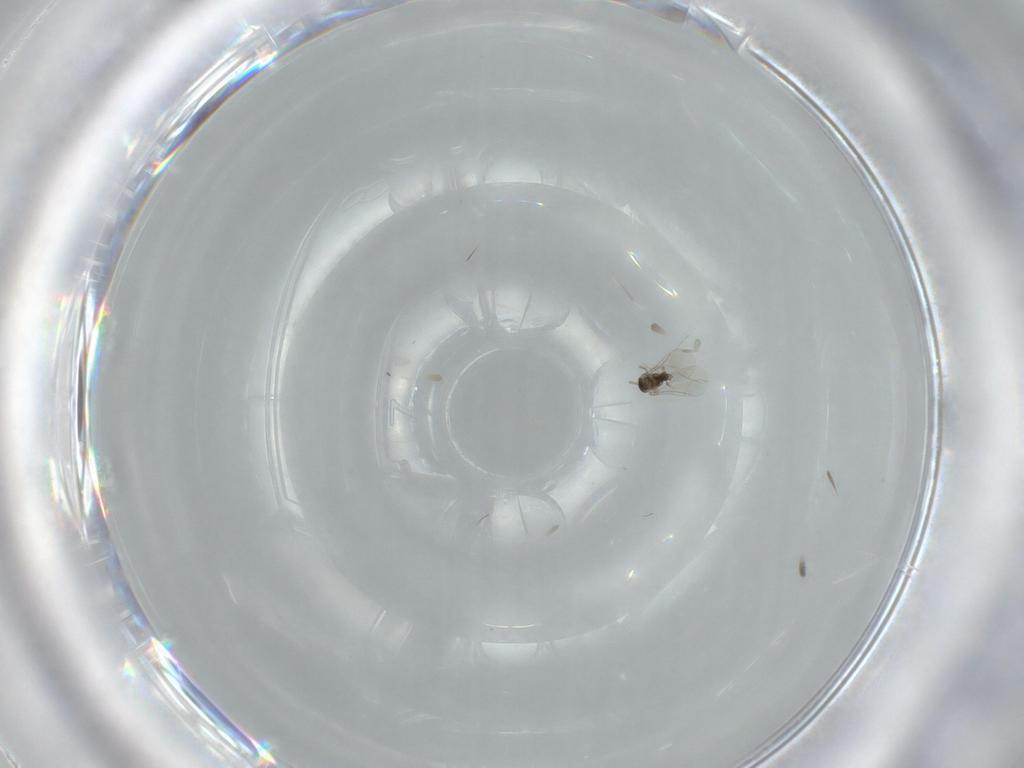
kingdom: Animalia
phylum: Arthropoda
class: Insecta
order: Diptera
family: Cecidomyiidae
